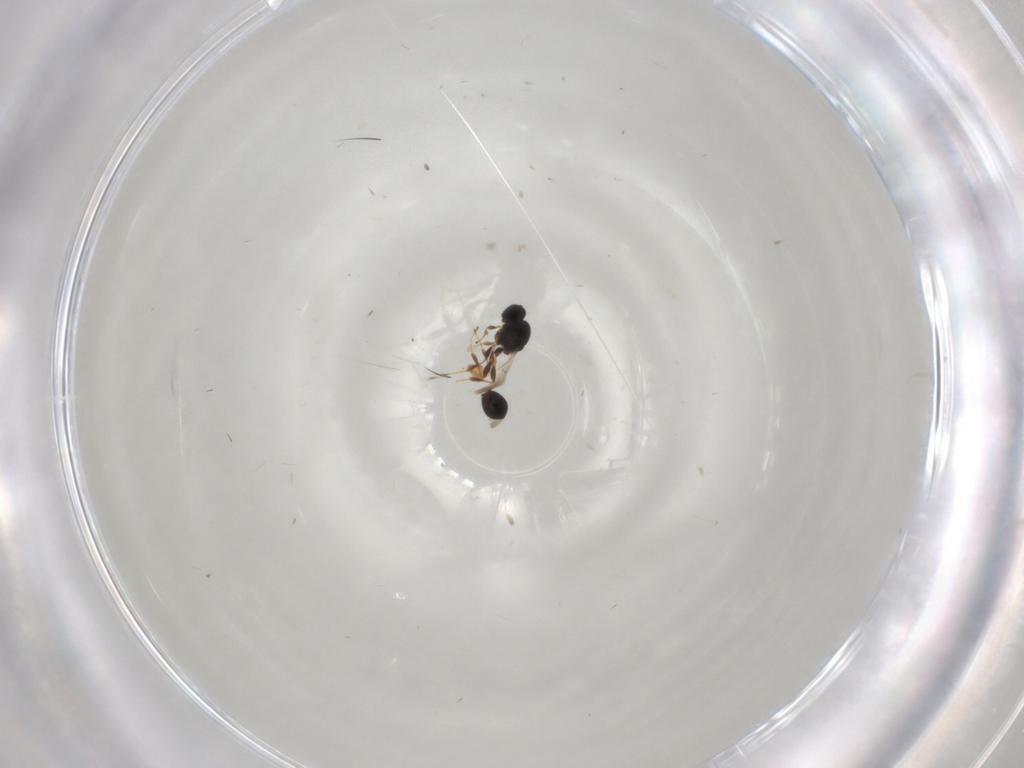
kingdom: Animalia
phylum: Arthropoda
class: Insecta
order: Hymenoptera
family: Platygastridae
